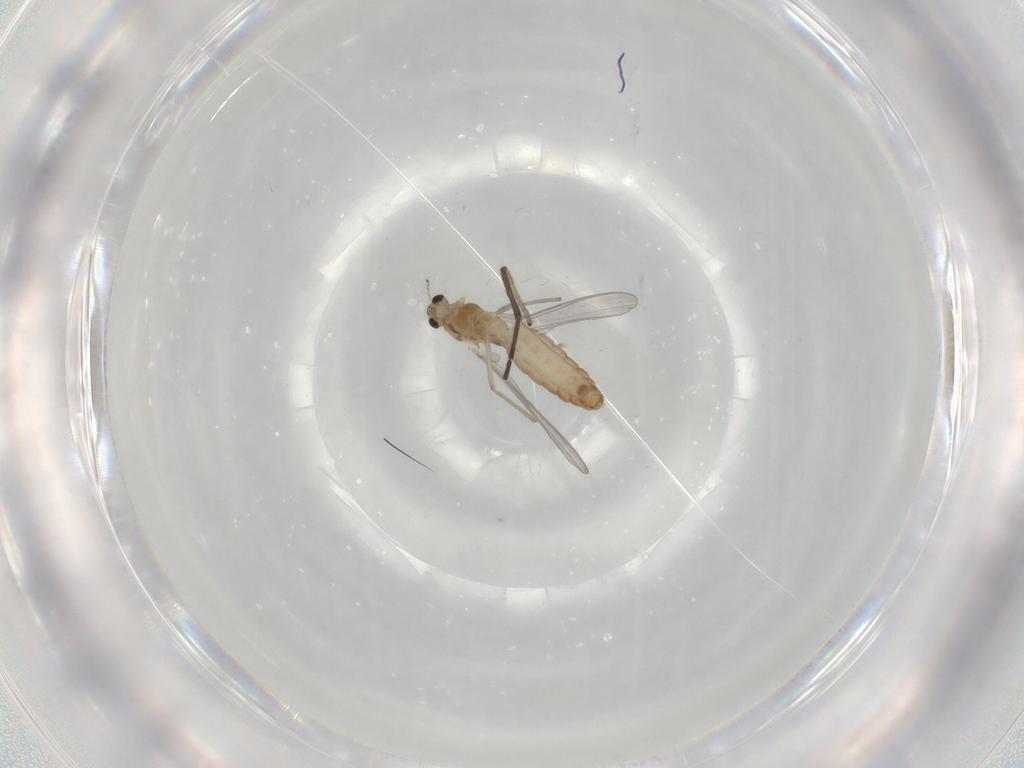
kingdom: Animalia
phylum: Arthropoda
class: Insecta
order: Diptera
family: Chironomidae
